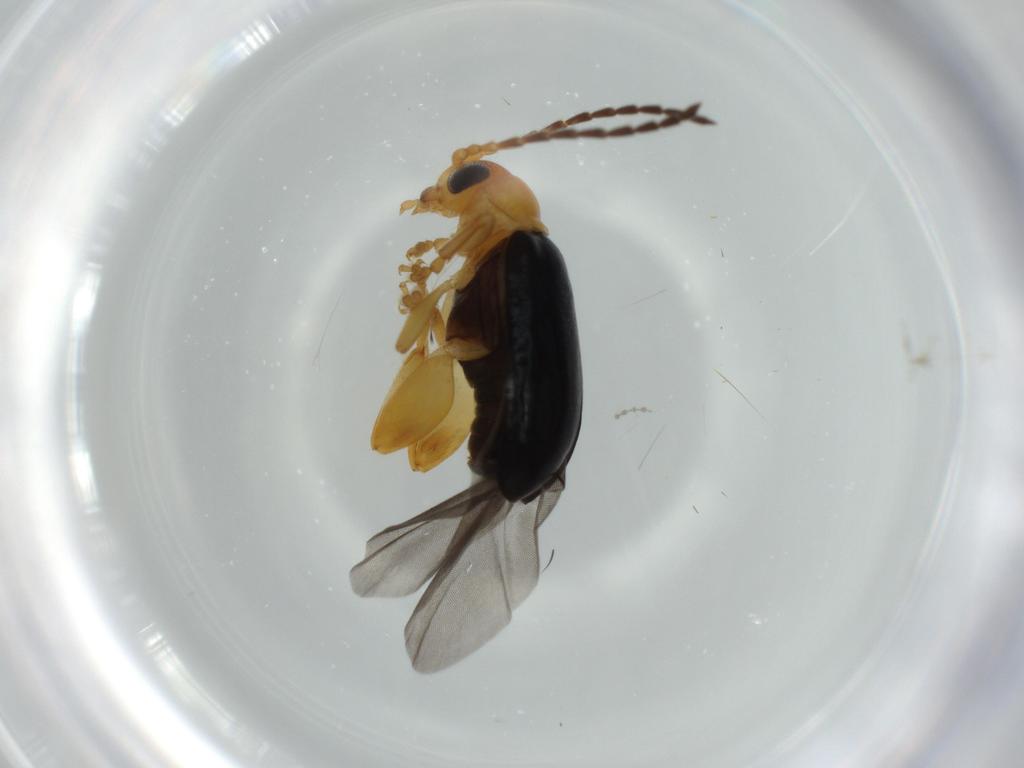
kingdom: Animalia
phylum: Arthropoda
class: Insecta
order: Coleoptera
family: Chrysomelidae
